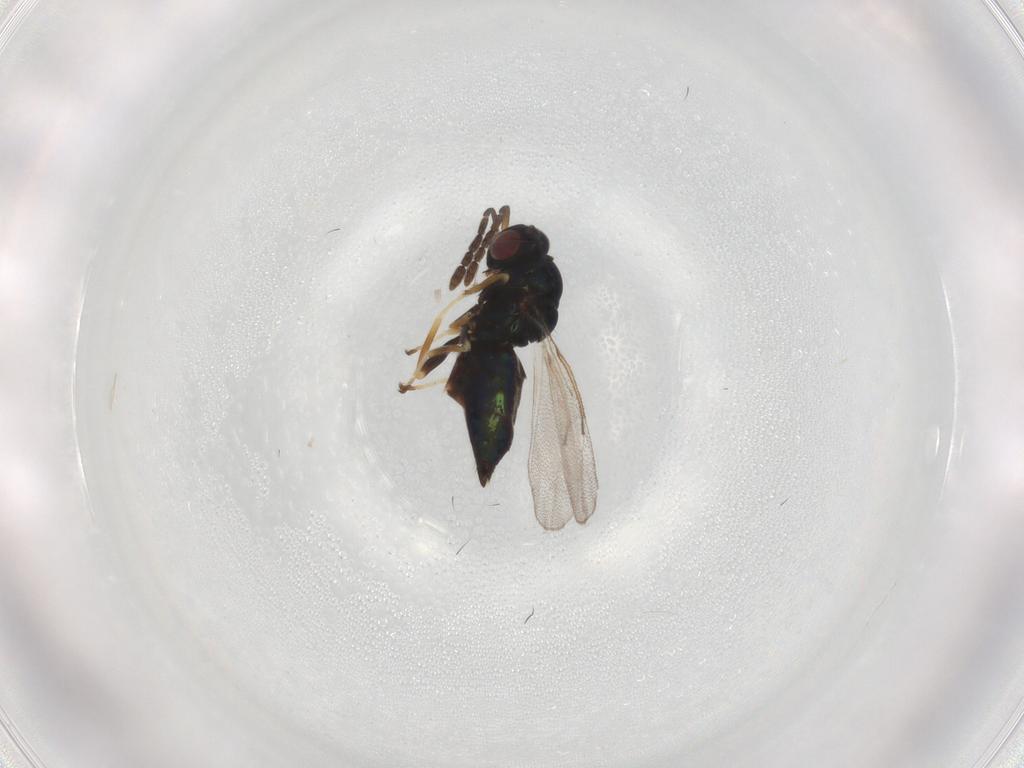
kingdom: Animalia
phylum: Arthropoda
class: Insecta
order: Hymenoptera
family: Eulophidae
